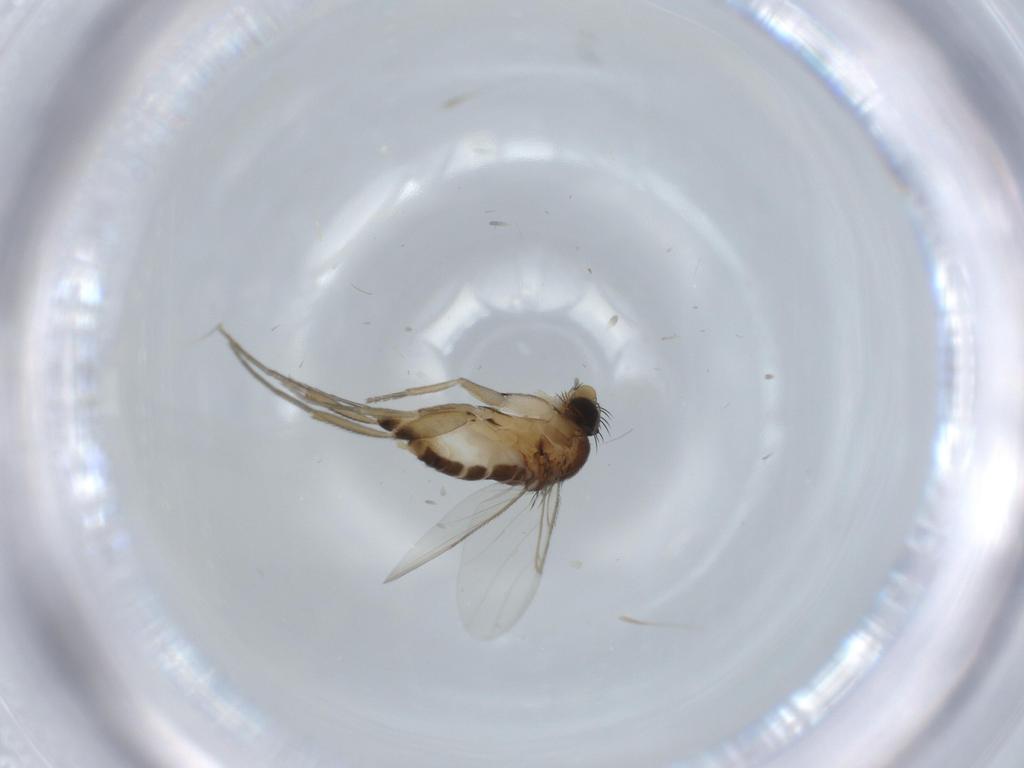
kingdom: Animalia
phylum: Arthropoda
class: Insecta
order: Diptera
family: Phoridae
